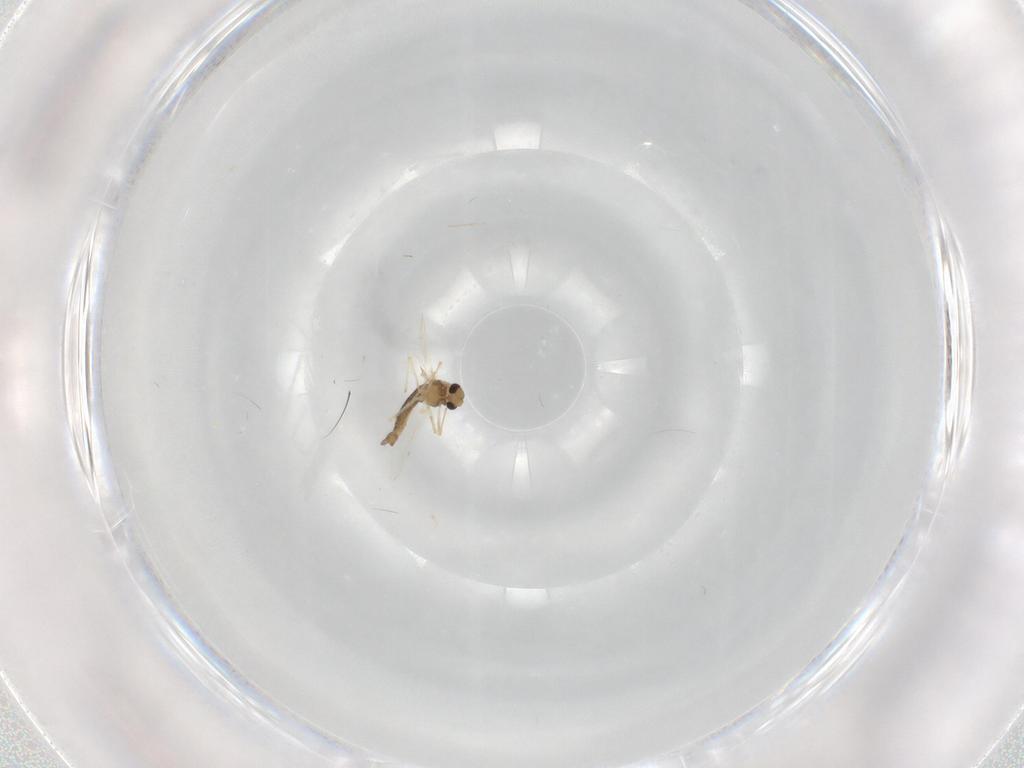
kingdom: Animalia
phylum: Arthropoda
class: Insecta
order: Diptera
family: Chironomidae
